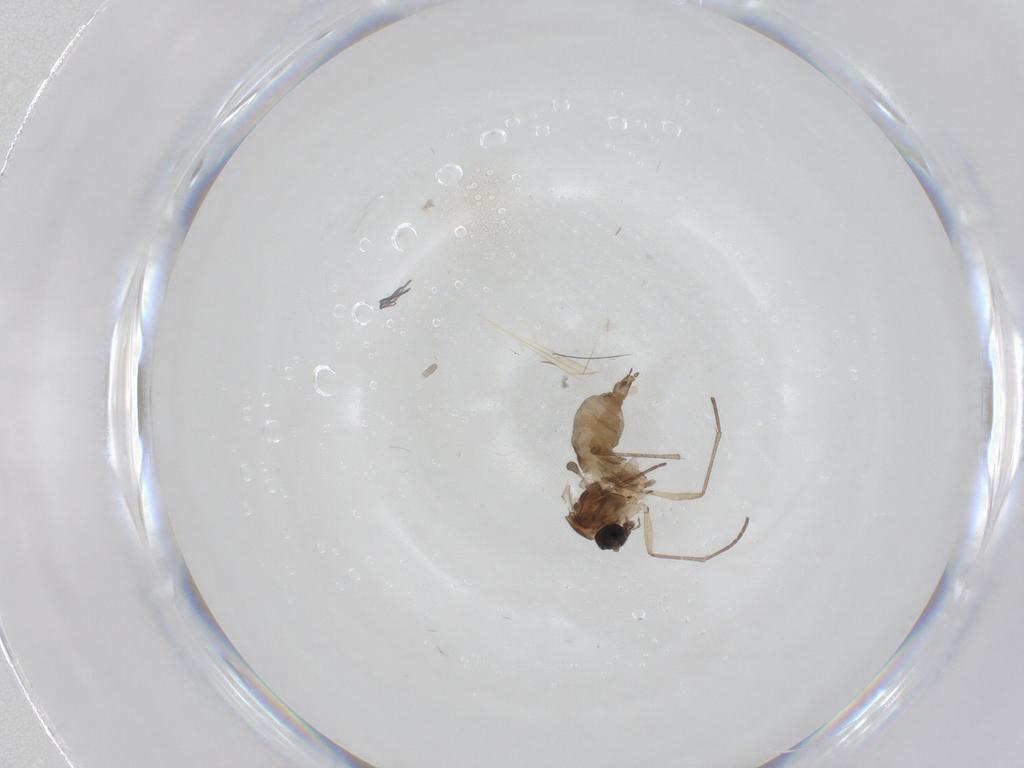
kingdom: Animalia
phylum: Arthropoda
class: Insecta
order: Diptera
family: Sciaridae
